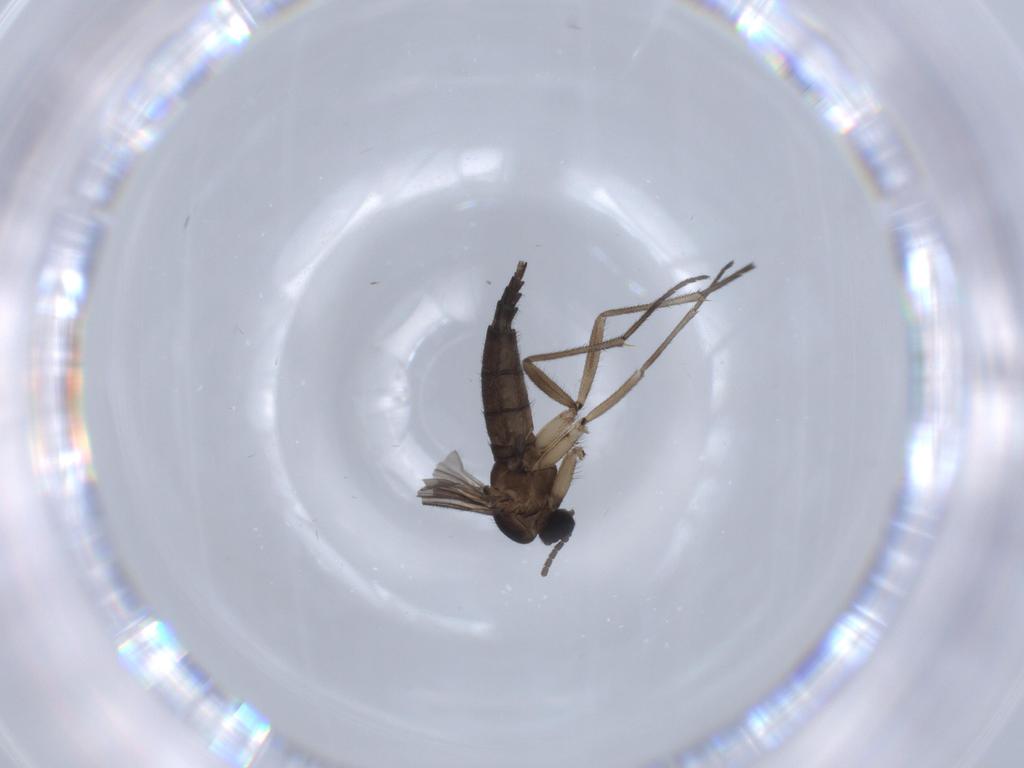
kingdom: Animalia
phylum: Arthropoda
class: Insecta
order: Diptera
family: Sciaridae
